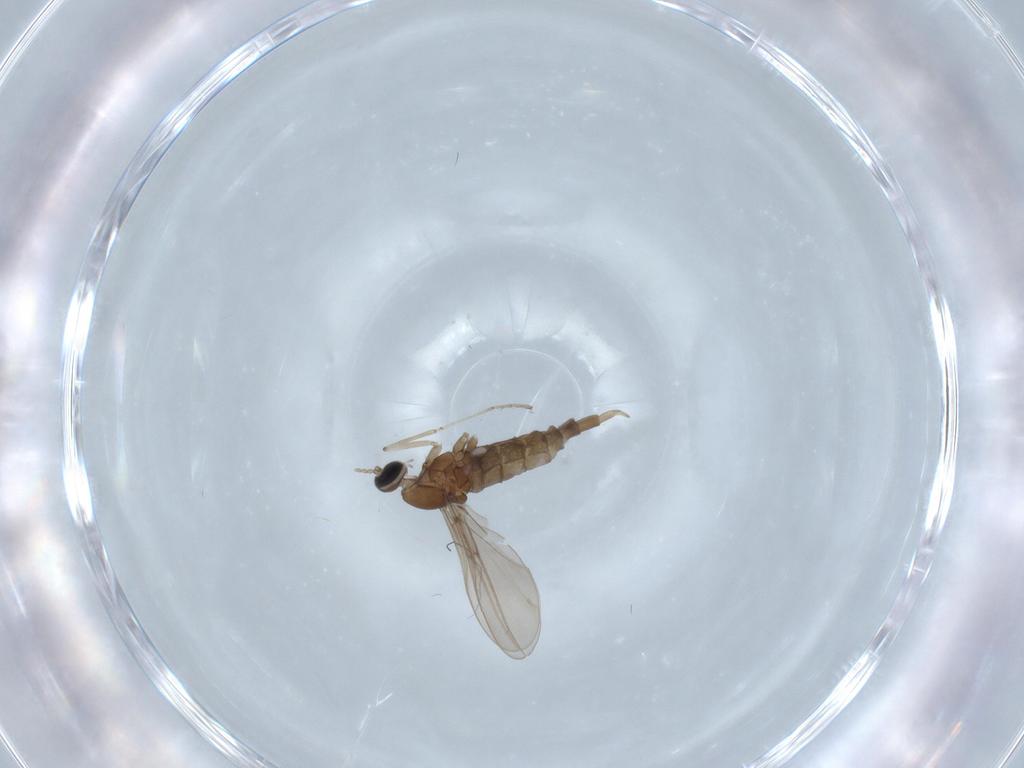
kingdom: Animalia
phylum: Arthropoda
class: Insecta
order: Diptera
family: Cecidomyiidae
